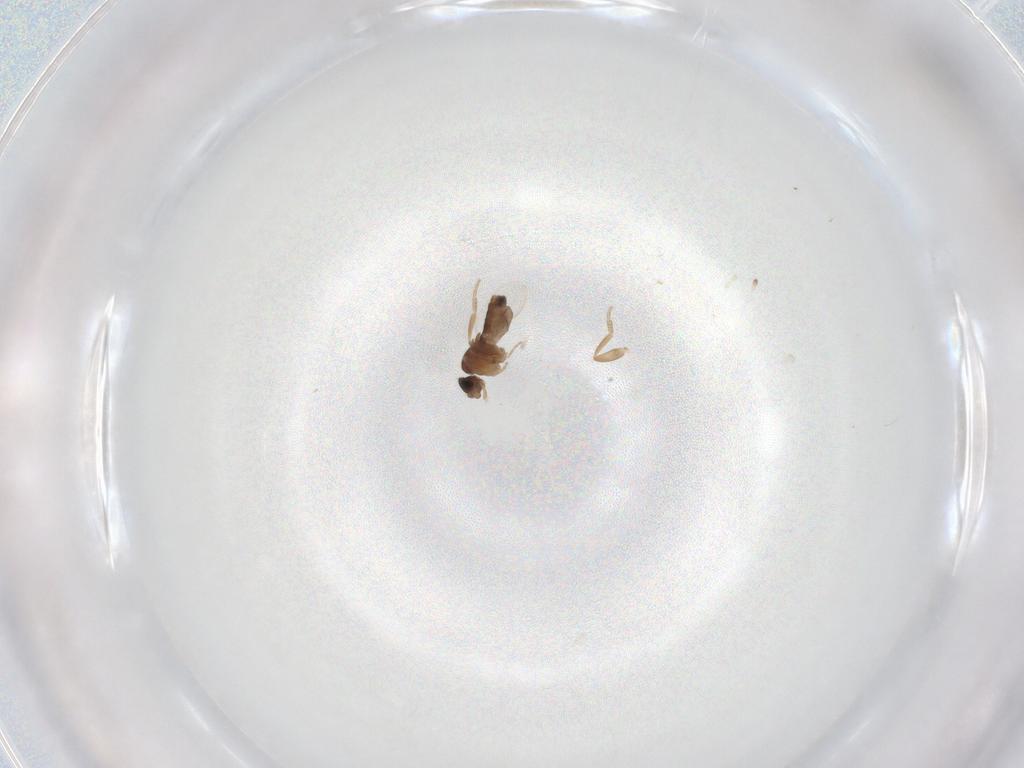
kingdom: Animalia
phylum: Arthropoda
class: Insecta
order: Diptera
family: Phoridae
